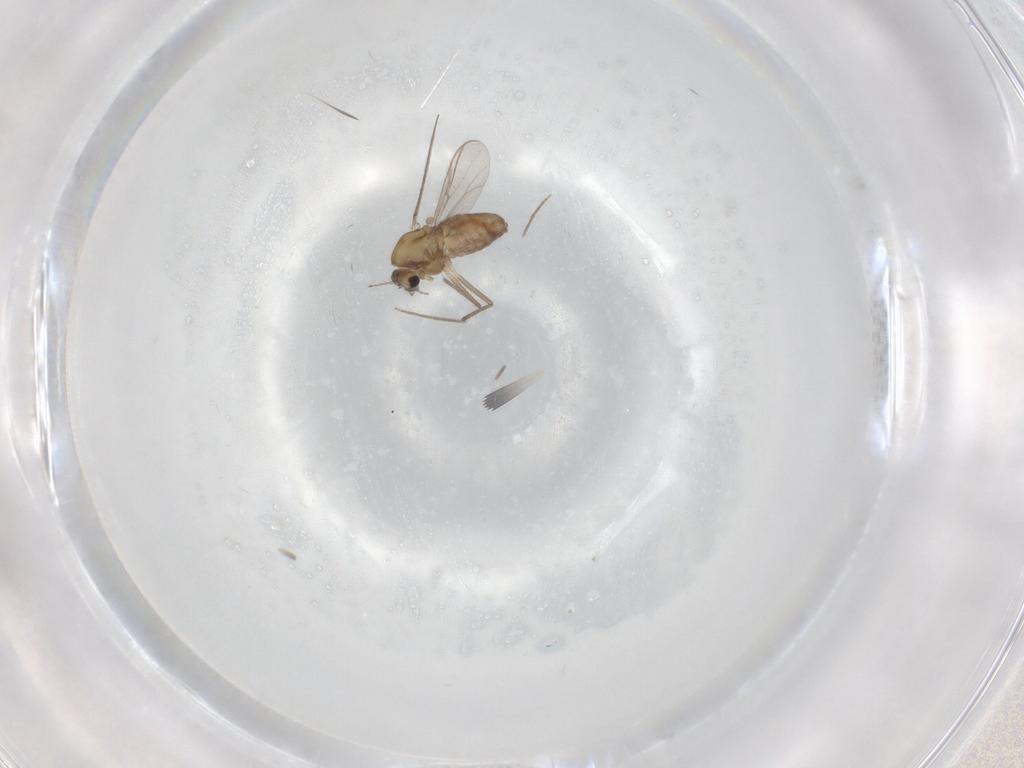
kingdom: Animalia
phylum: Arthropoda
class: Insecta
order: Diptera
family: Chironomidae
